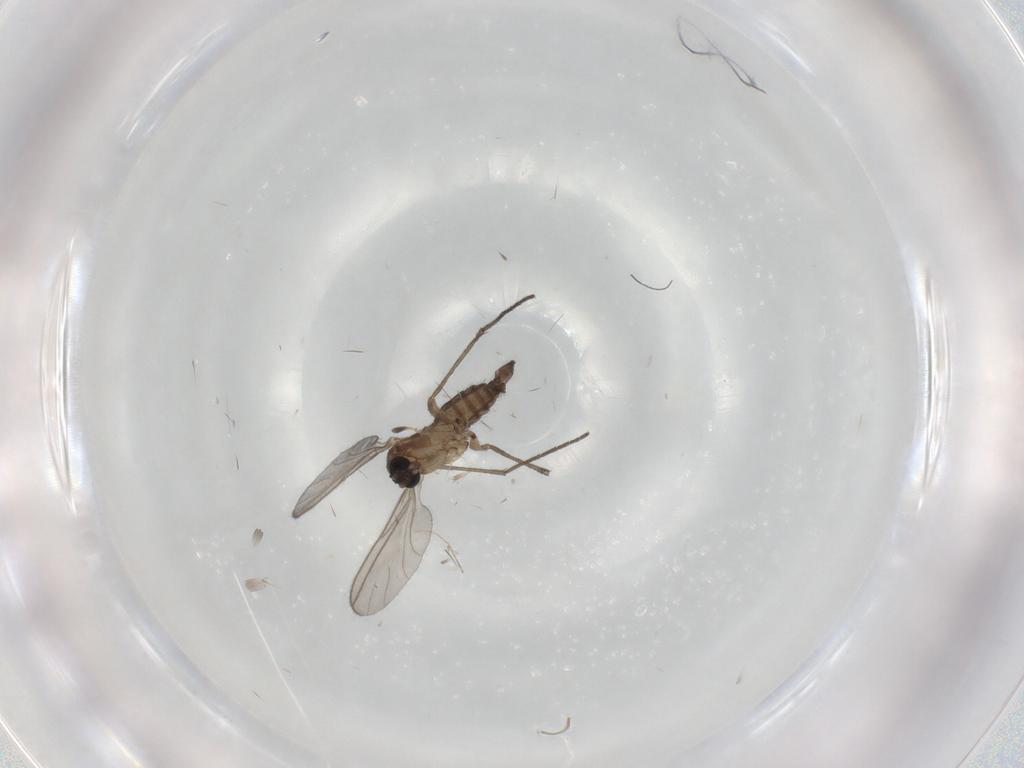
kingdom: Animalia
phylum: Arthropoda
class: Insecta
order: Diptera
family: Sciaridae
